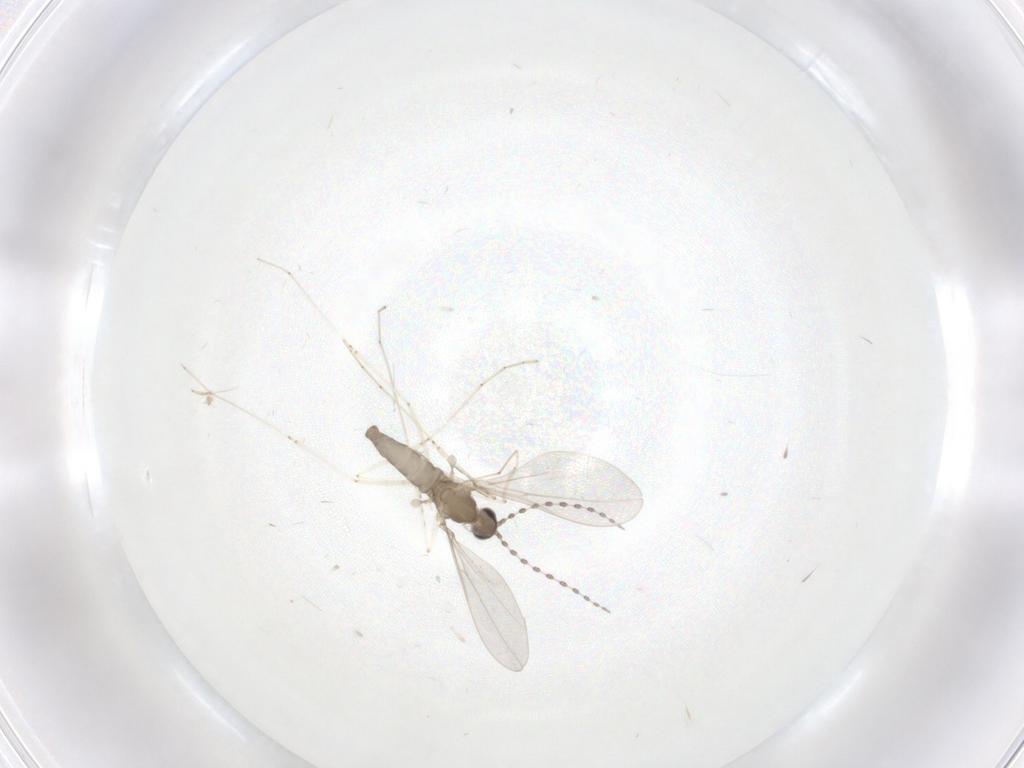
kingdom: Animalia
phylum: Arthropoda
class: Insecta
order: Diptera
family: Cecidomyiidae
